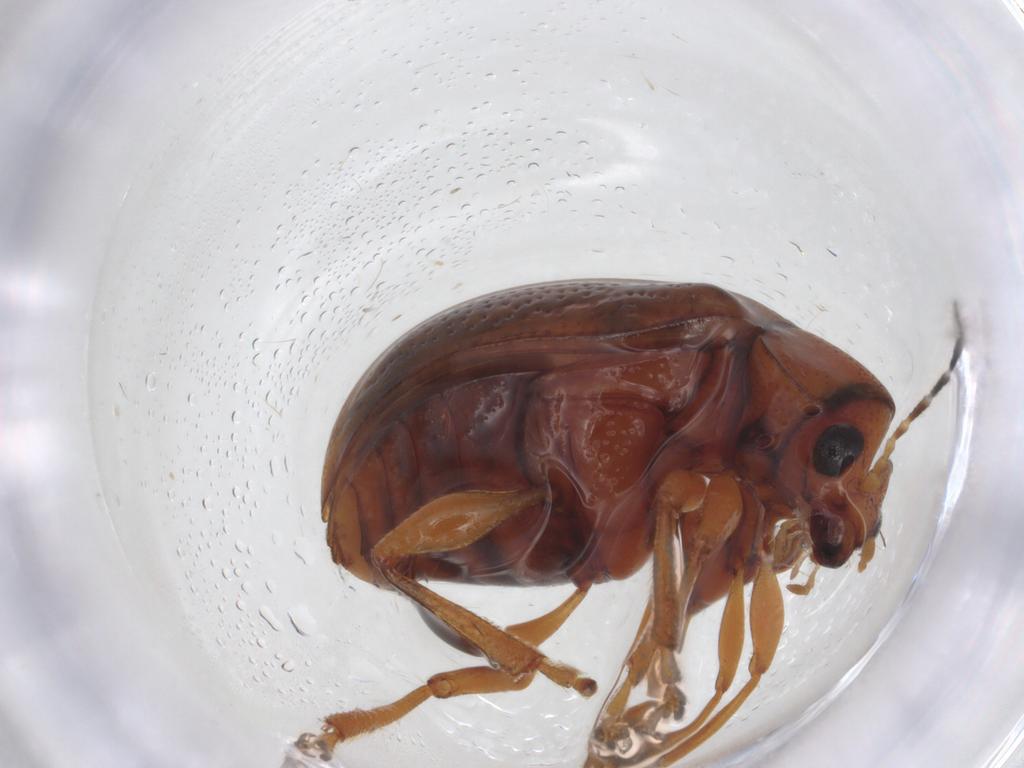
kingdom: Animalia
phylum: Arthropoda
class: Insecta
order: Coleoptera
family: Chrysomelidae
